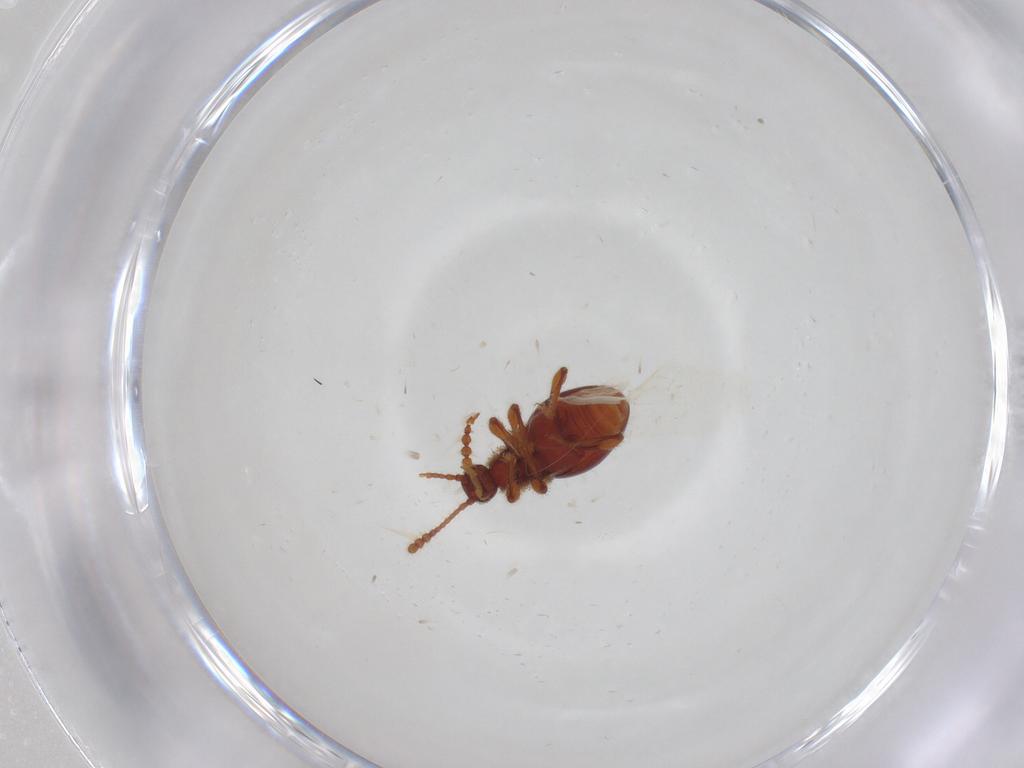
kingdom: Animalia
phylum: Arthropoda
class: Insecta
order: Coleoptera
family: Staphylinidae
